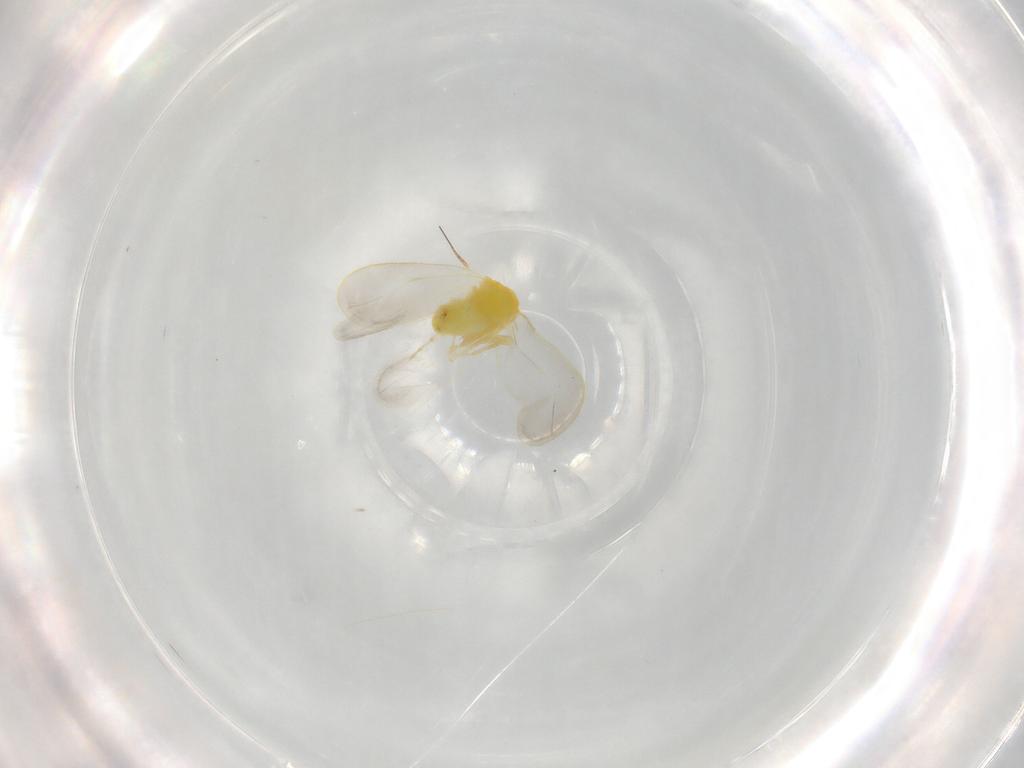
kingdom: Animalia
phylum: Arthropoda
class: Insecta
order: Hemiptera
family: Aleyrodidae
